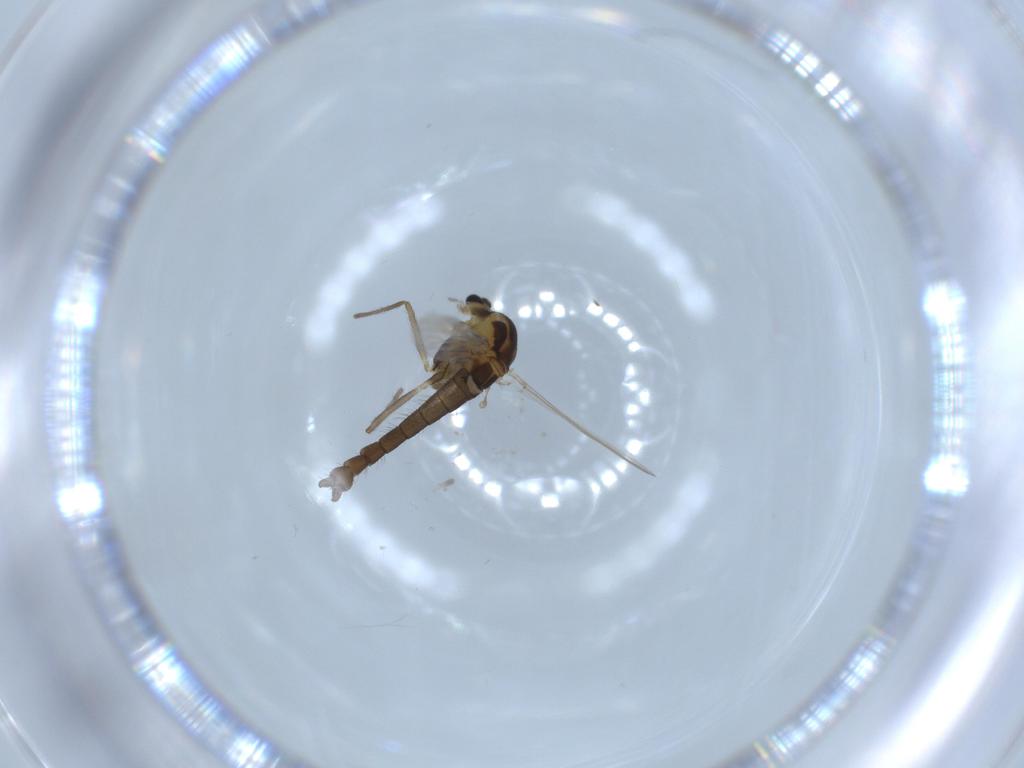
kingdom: Animalia
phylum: Arthropoda
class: Insecta
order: Diptera
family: Chironomidae
